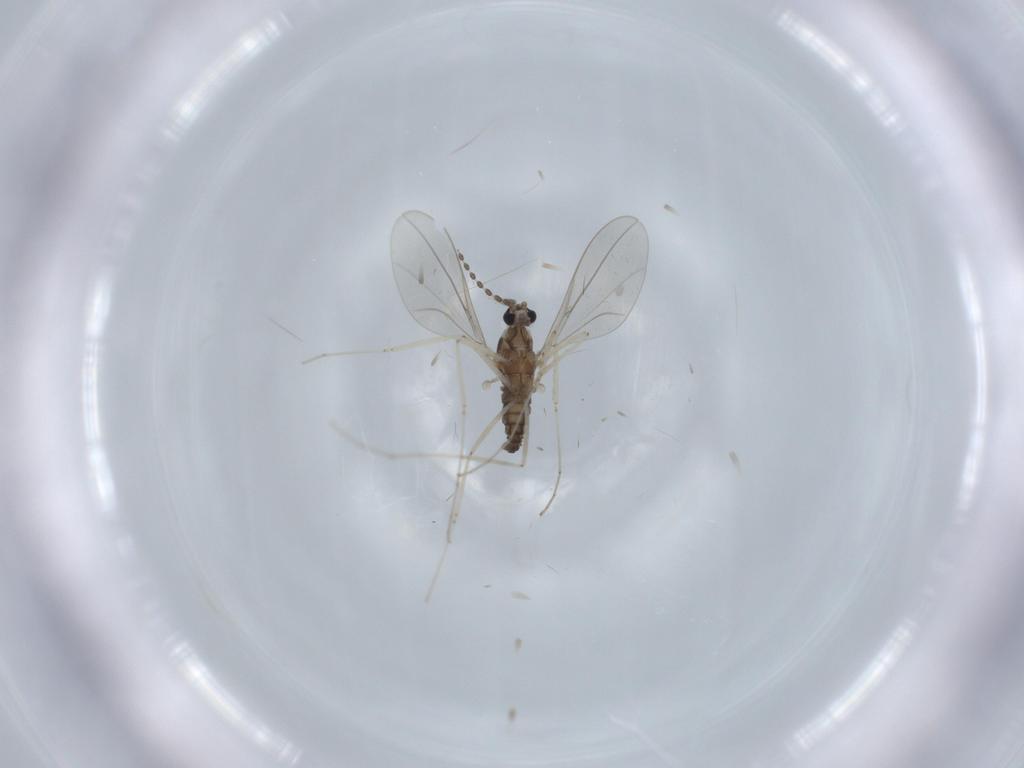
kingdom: Animalia
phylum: Arthropoda
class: Insecta
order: Diptera
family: Cecidomyiidae
